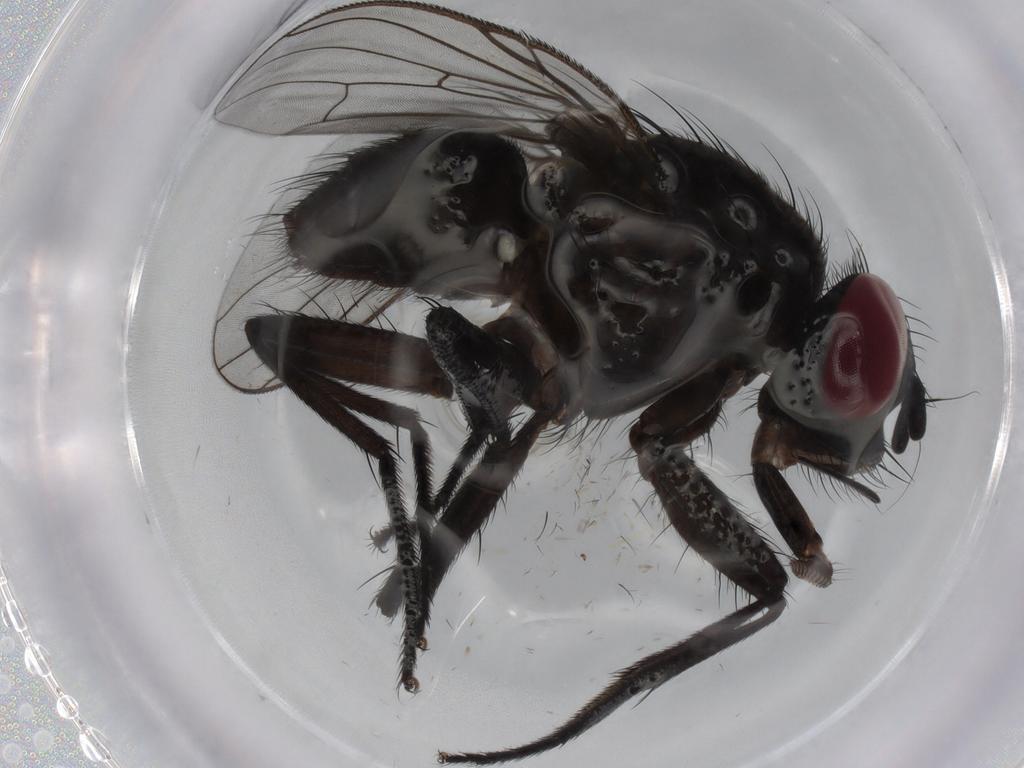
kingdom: Animalia
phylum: Arthropoda
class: Insecta
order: Diptera
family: Muscidae
